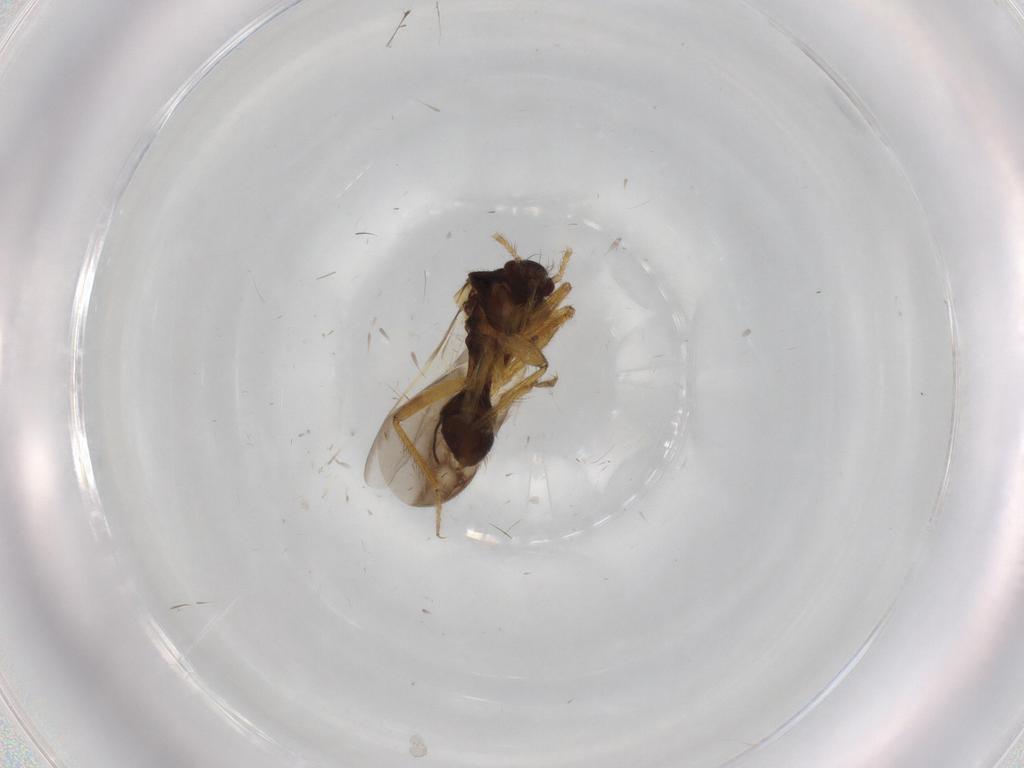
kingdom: Animalia
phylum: Arthropoda
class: Insecta
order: Hemiptera
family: Ceratocombidae
